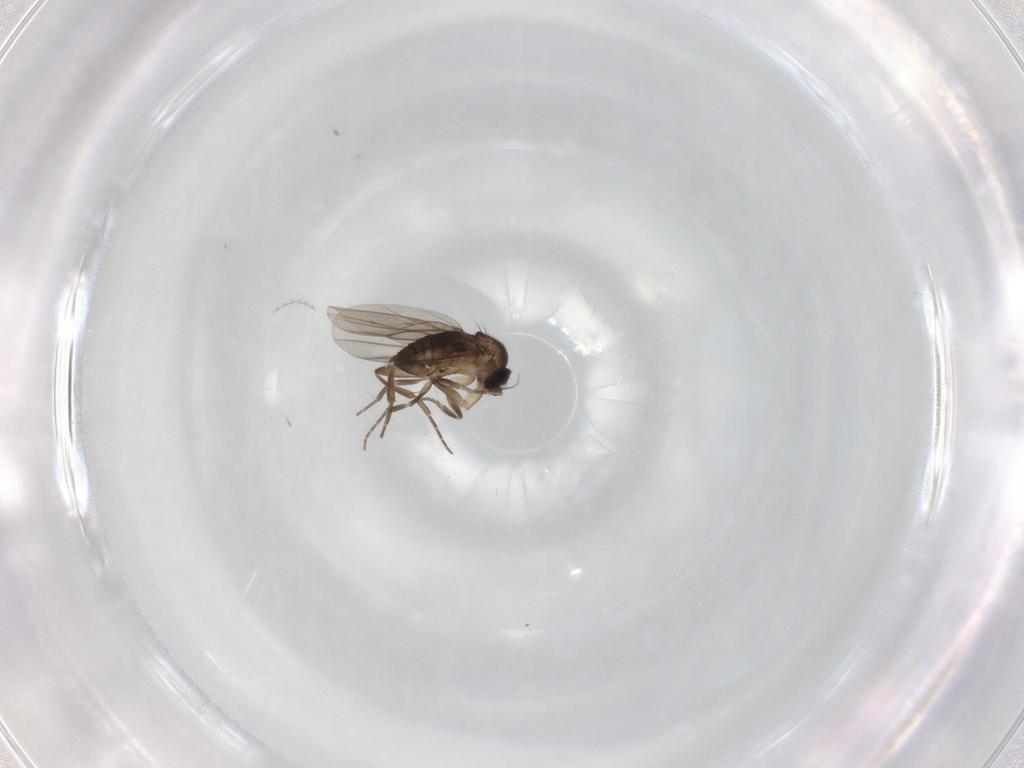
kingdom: Animalia
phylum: Arthropoda
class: Insecta
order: Diptera
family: Cecidomyiidae
